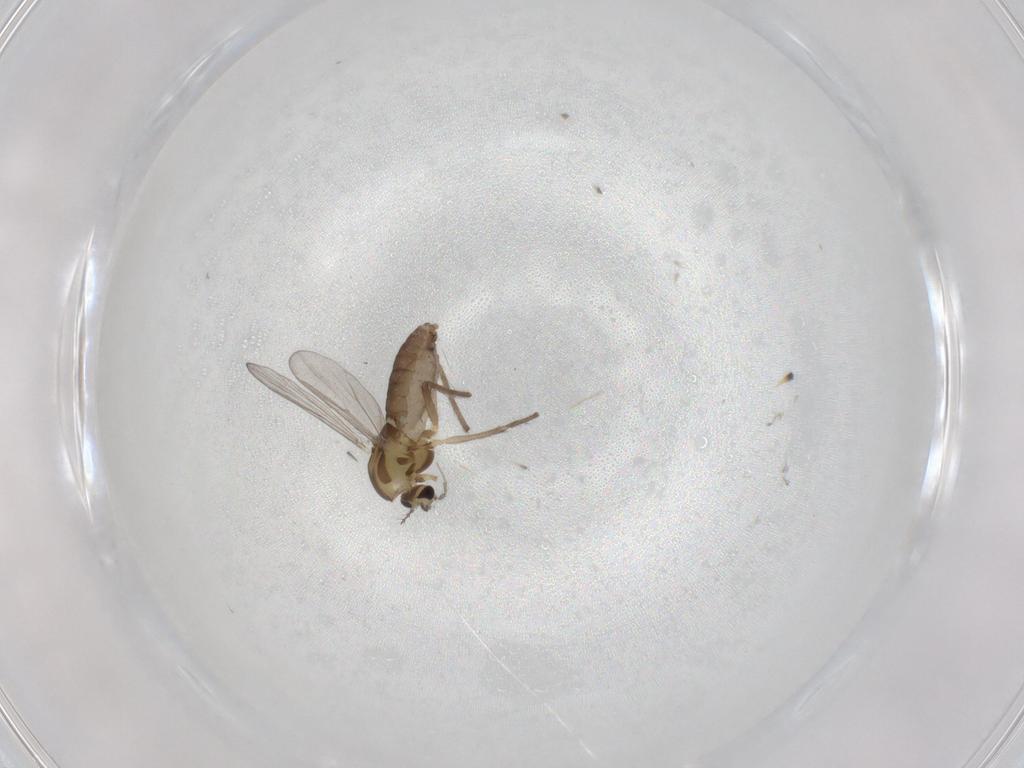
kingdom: Animalia
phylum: Arthropoda
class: Insecta
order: Diptera
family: Chironomidae
